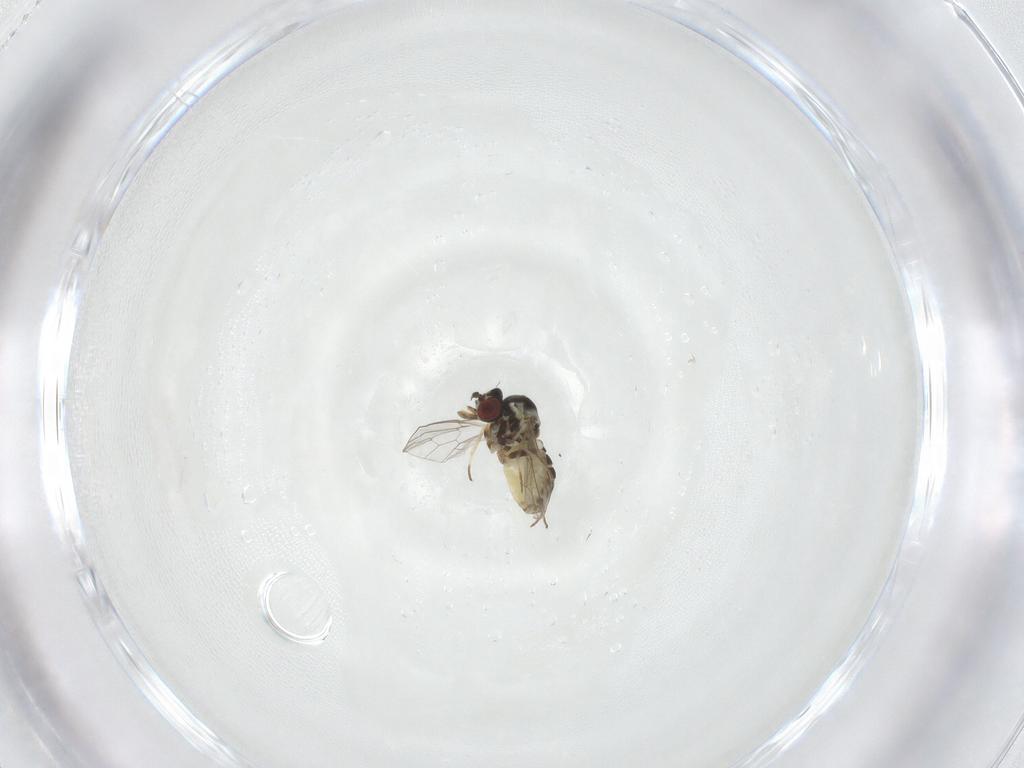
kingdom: Animalia
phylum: Arthropoda
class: Insecta
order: Diptera
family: Mythicomyiidae
